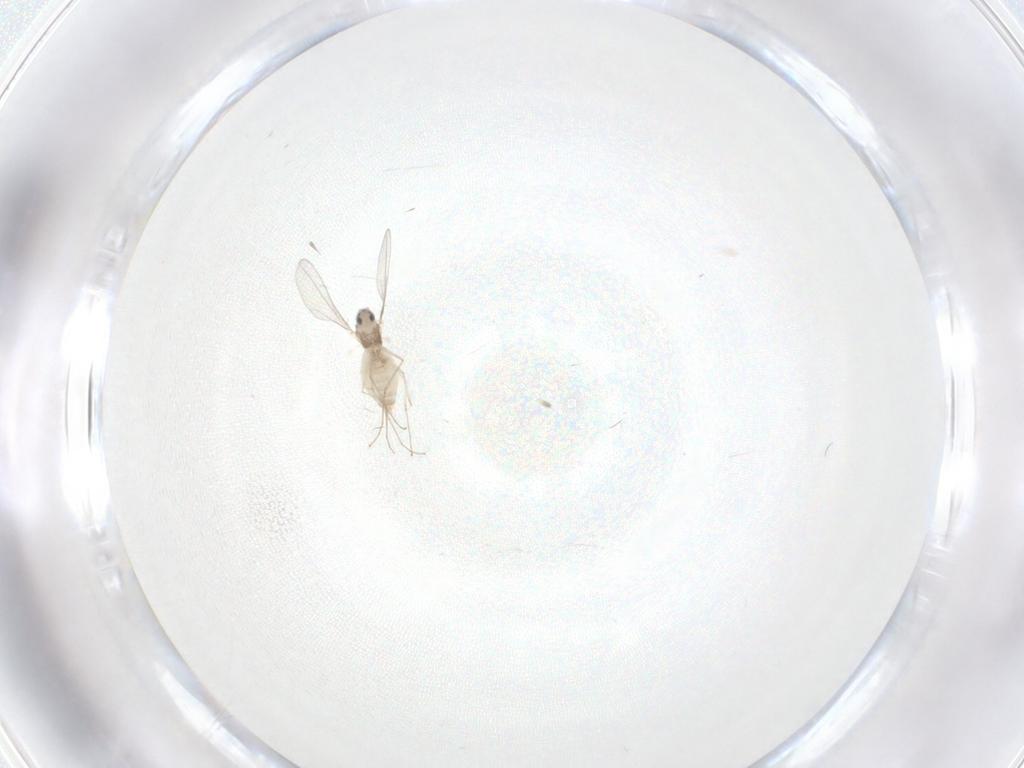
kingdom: Animalia
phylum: Arthropoda
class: Insecta
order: Diptera
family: Cecidomyiidae
